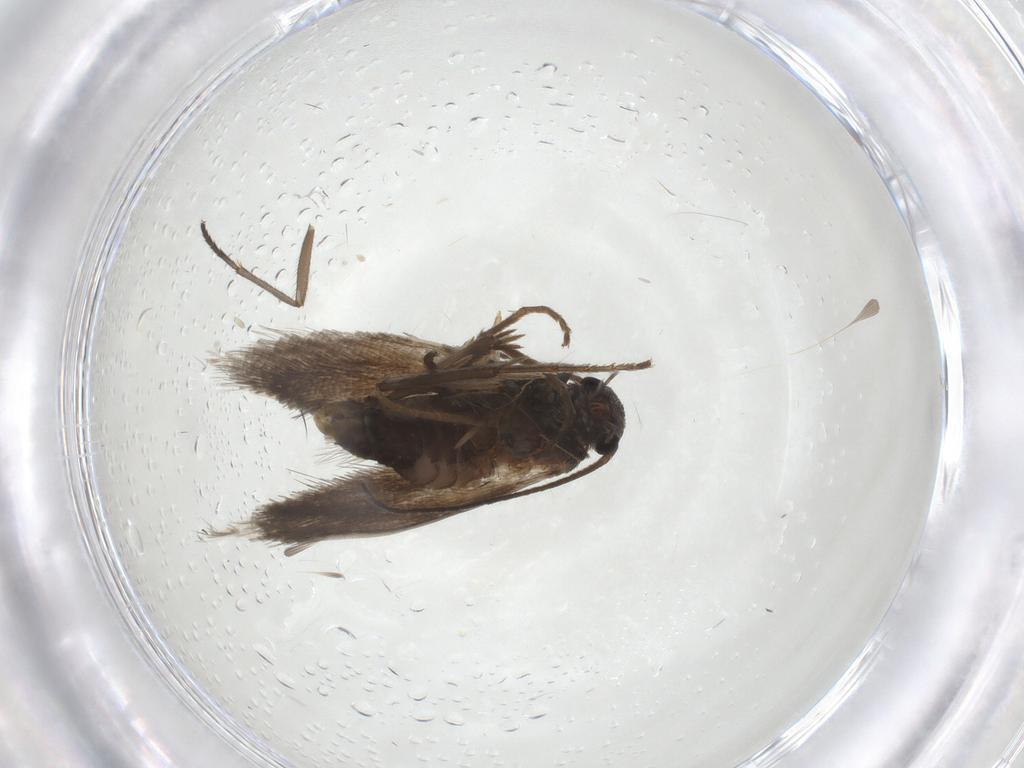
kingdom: Animalia
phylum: Arthropoda
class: Insecta
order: Lepidoptera
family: Heliozelidae
